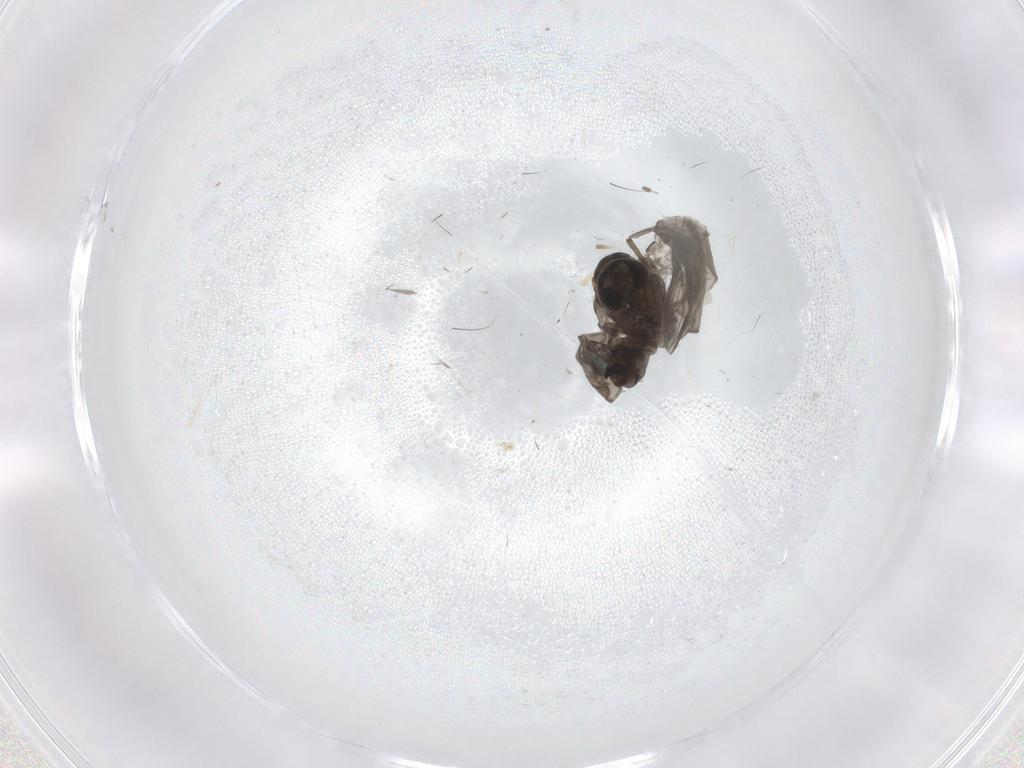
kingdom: Animalia
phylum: Arthropoda
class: Insecta
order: Diptera
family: Psychodidae
